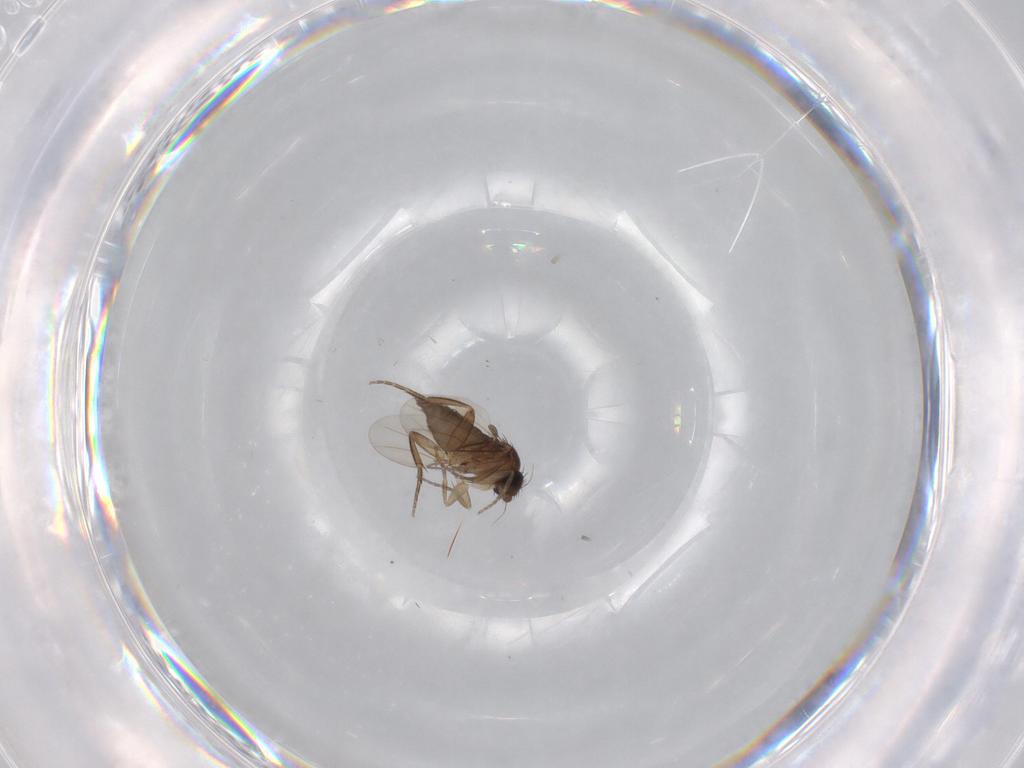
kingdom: Animalia
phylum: Arthropoda
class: Insecta
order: Diptera
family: Phoridae
